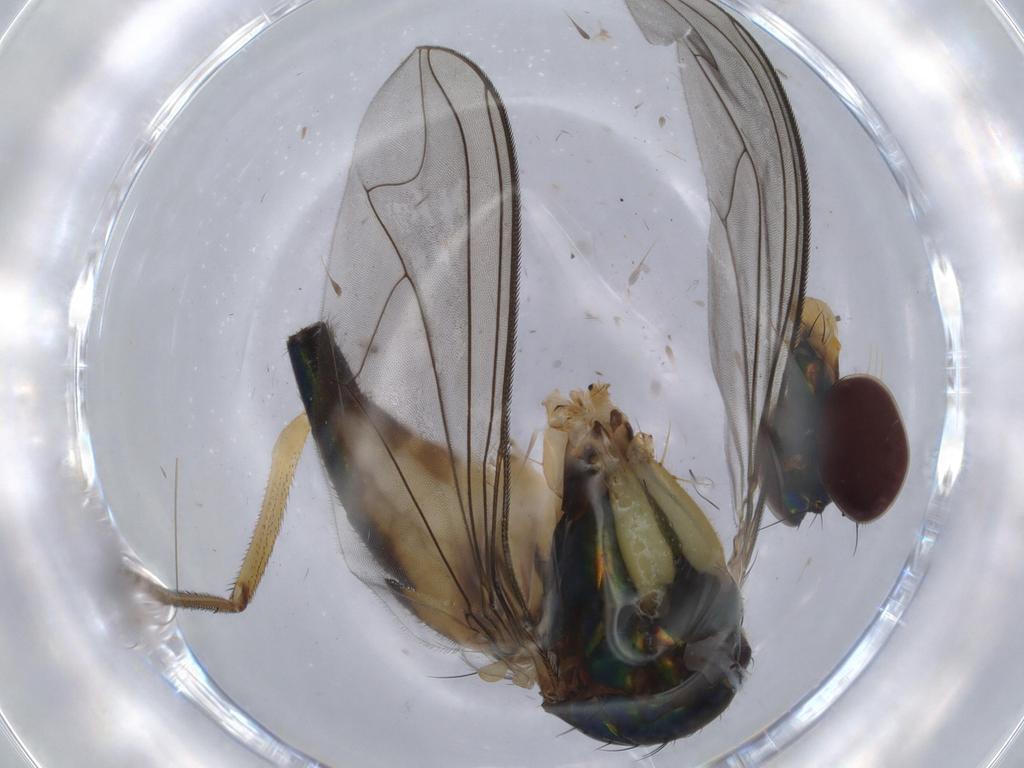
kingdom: Animalia
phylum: Arthropoda
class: Insecta
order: Diptera
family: Dolichopodidae
